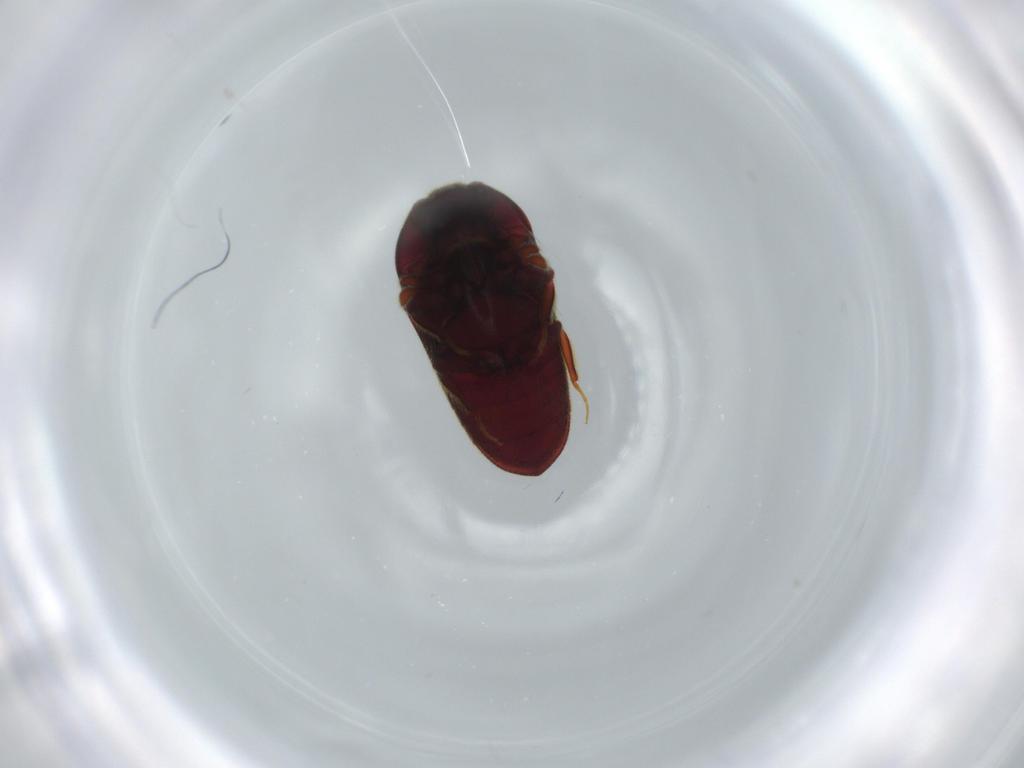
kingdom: Animalia
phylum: Arthropoda
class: Insecta
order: Coleoptera
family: Throscidae
